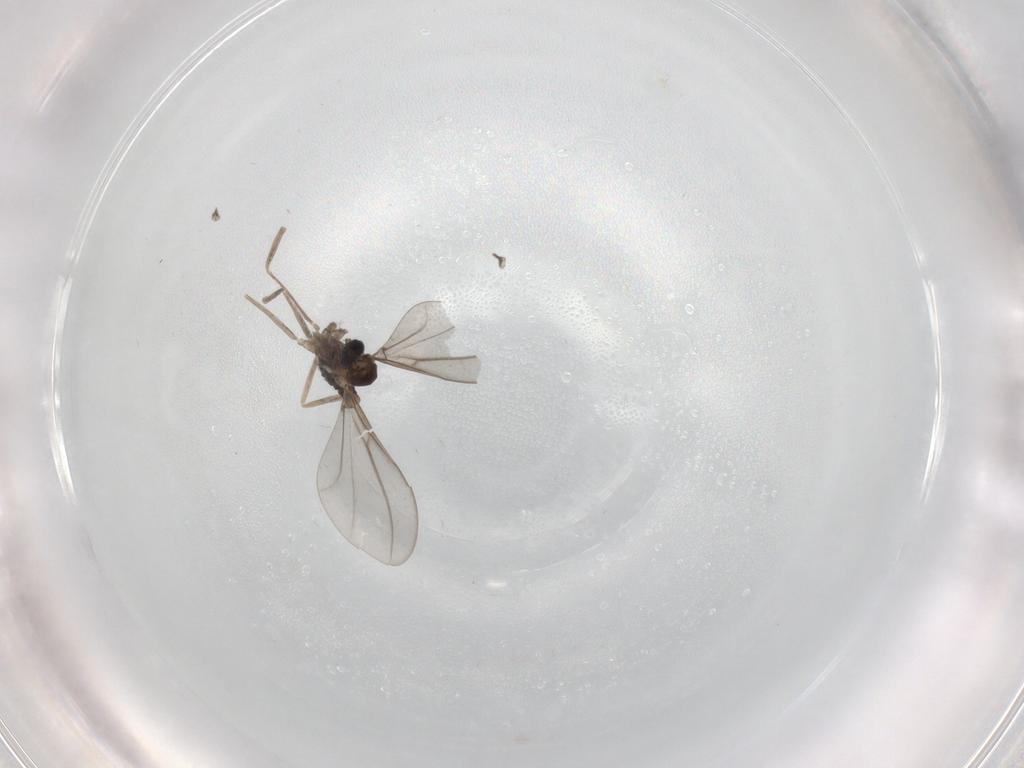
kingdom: Animalia
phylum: Arthropoda
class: Insecta
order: Diptera
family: Cecidomyiidae
